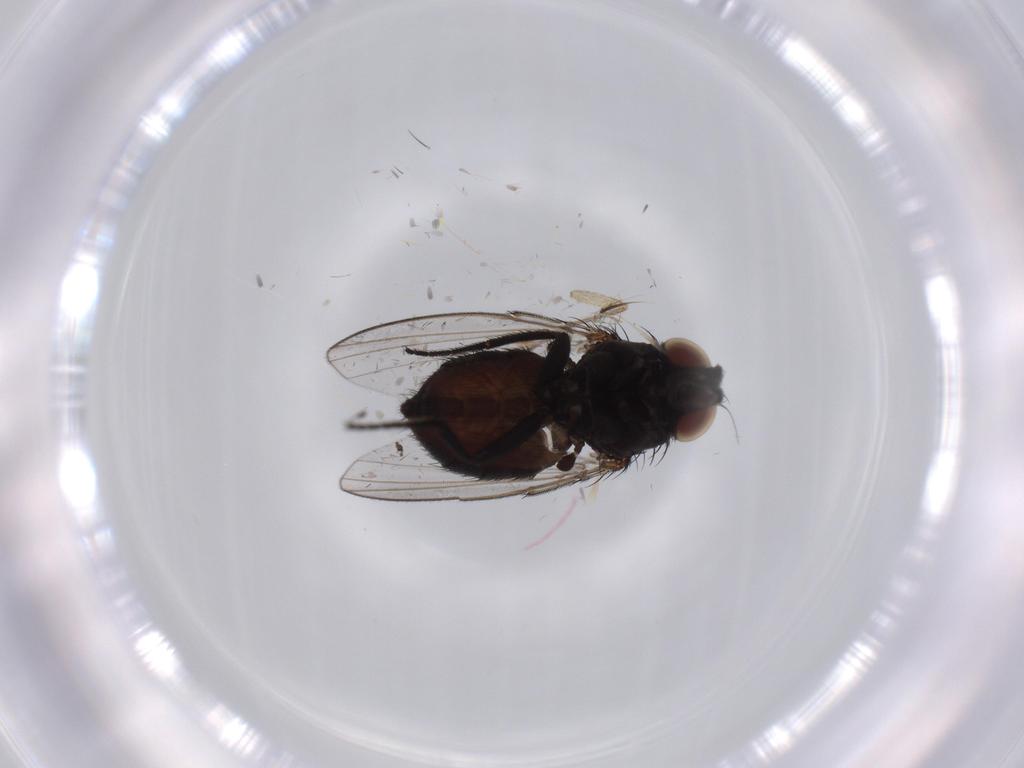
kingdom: Animalia
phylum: Arthropoda
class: Insecta
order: Diptera
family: Milichiidae
